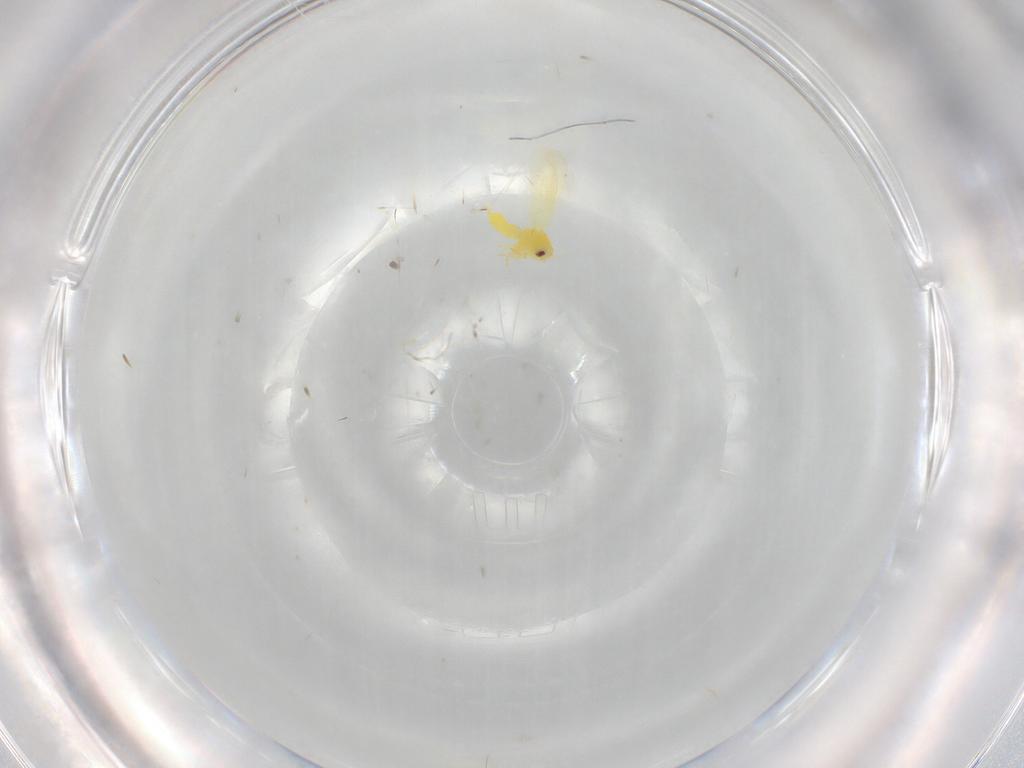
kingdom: Animalia
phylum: Arthropoda
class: Insecta
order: Hemiptera
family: Aleyrodidae
